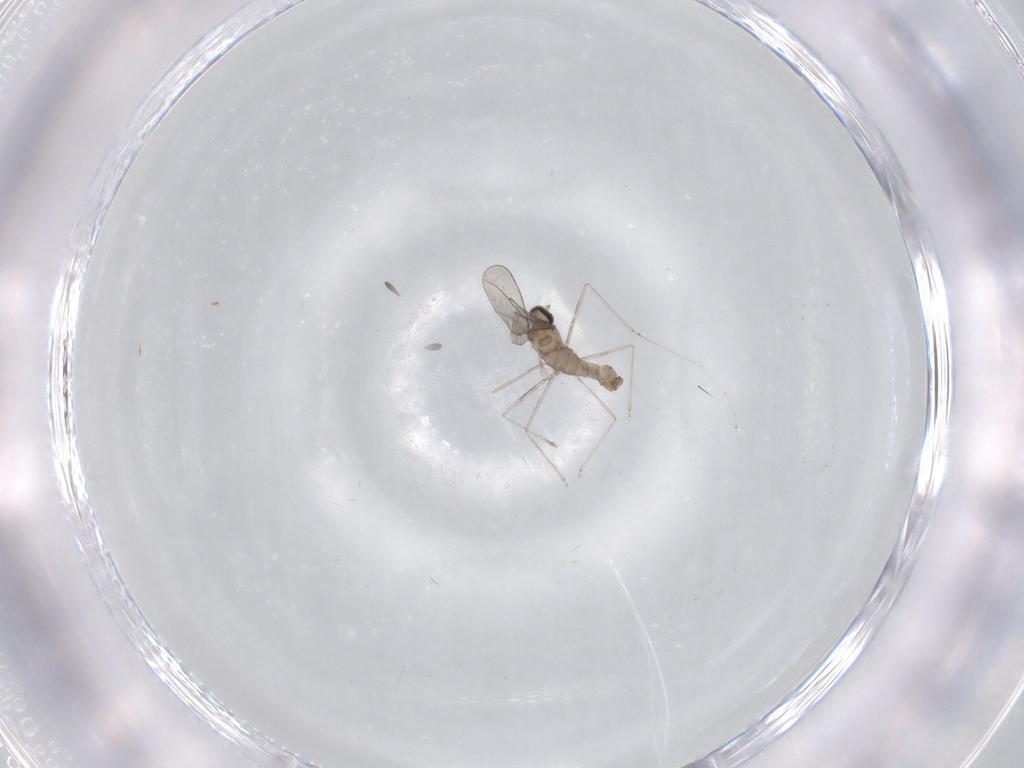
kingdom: Animalia
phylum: Arthropoda
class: Insecta
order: Diptera
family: Cecidomyiidae
